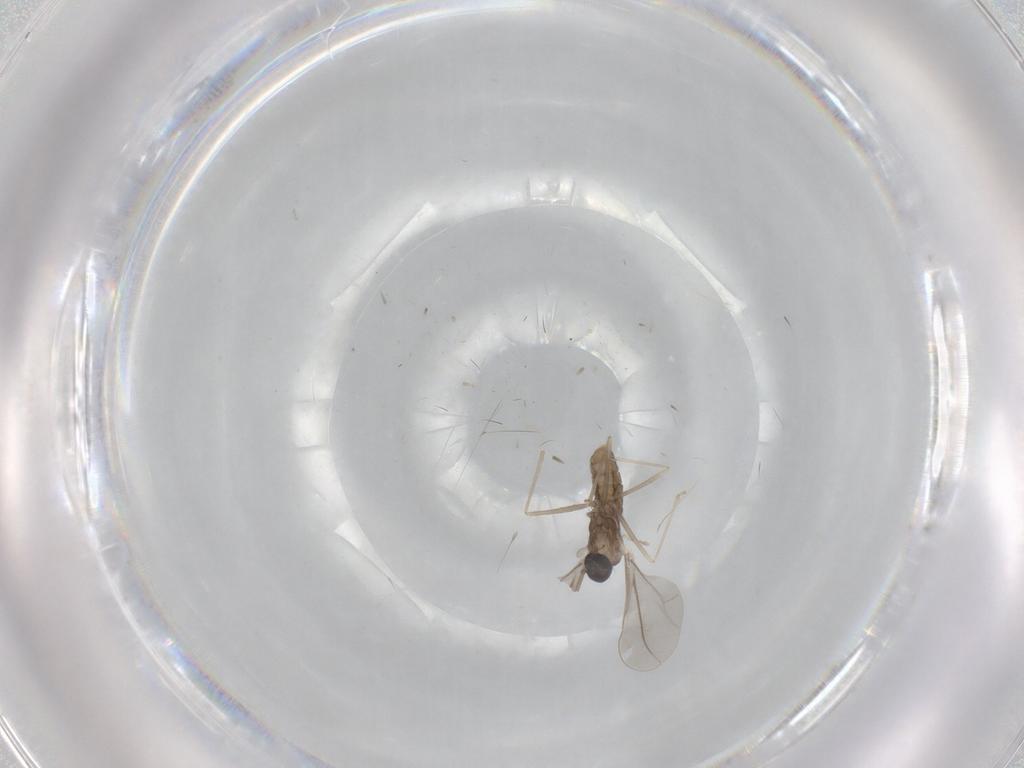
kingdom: Animalia
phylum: Arthropoda
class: Insecta
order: Diptera
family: Cecidomyiidae
